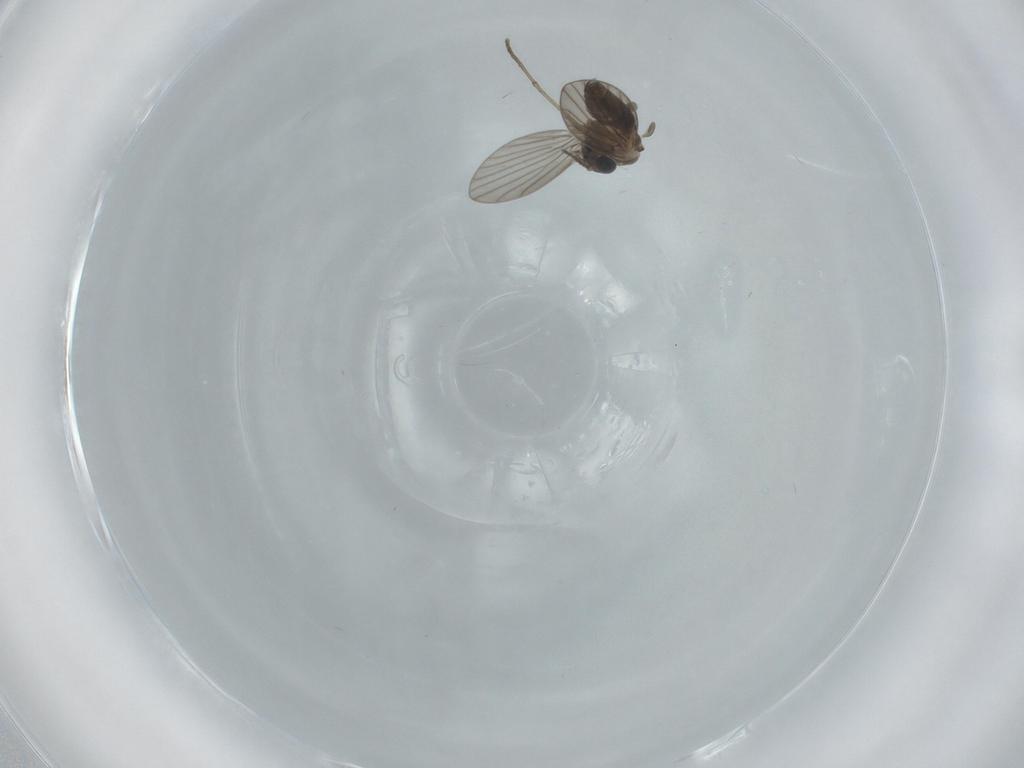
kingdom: Animalia
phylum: Arthropoda
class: Insecta
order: Diptera
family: Psychodidae
